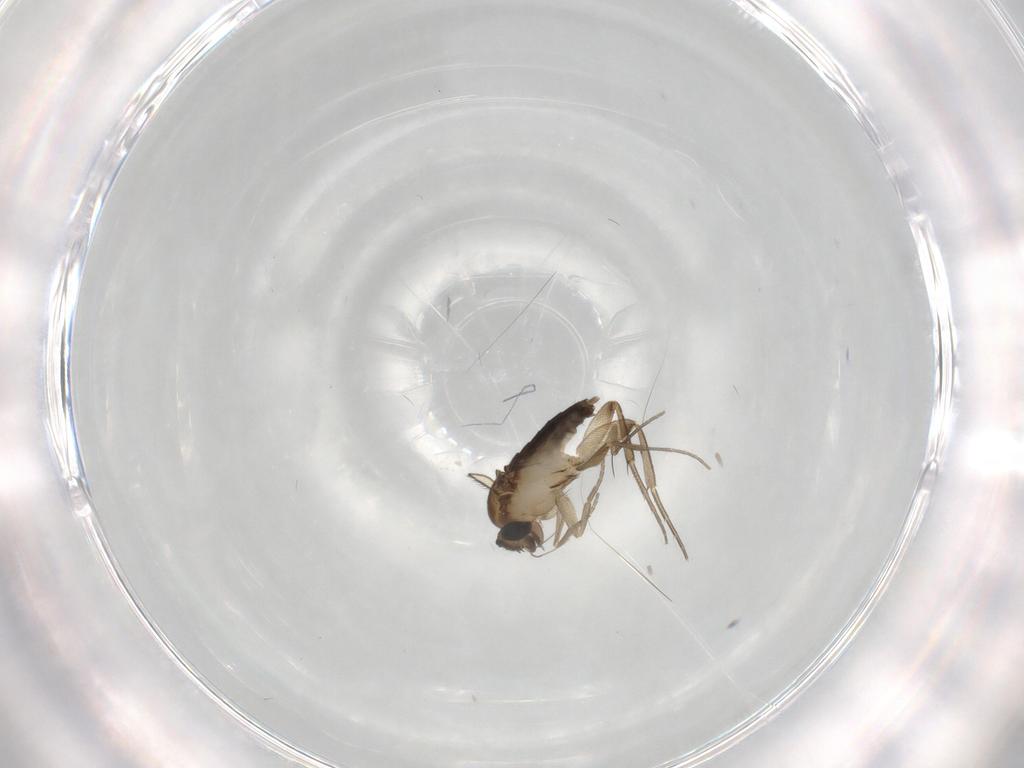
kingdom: Animalia
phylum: Arthropoda
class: Insecta
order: Diptera
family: Phoridae
